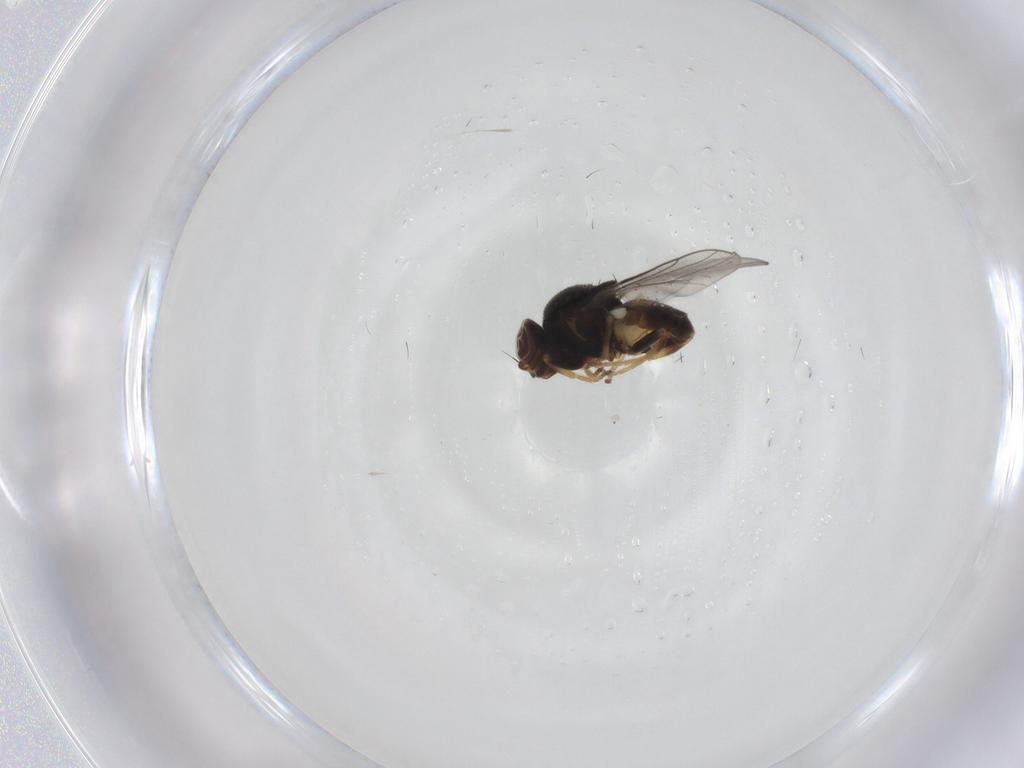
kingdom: Animalia
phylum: Arthropoda
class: Insecta
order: Diptera
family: Chloropidae
